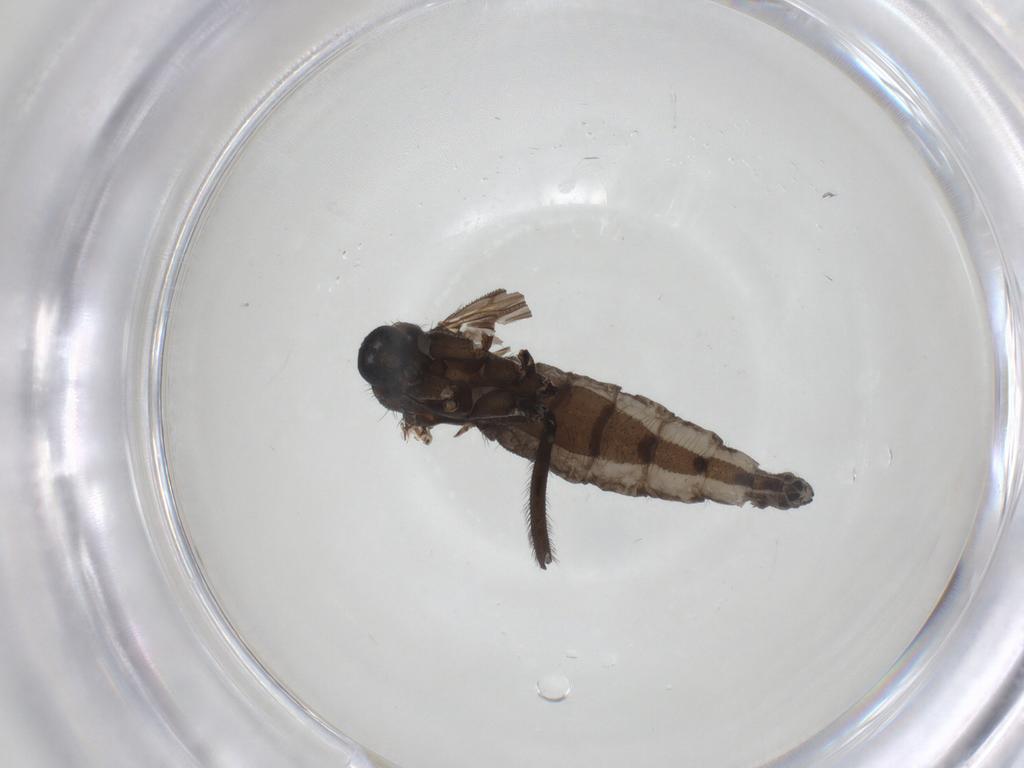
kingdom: Animalia
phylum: Arthropoda
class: Insecta
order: Diptera
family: Sciaridae
